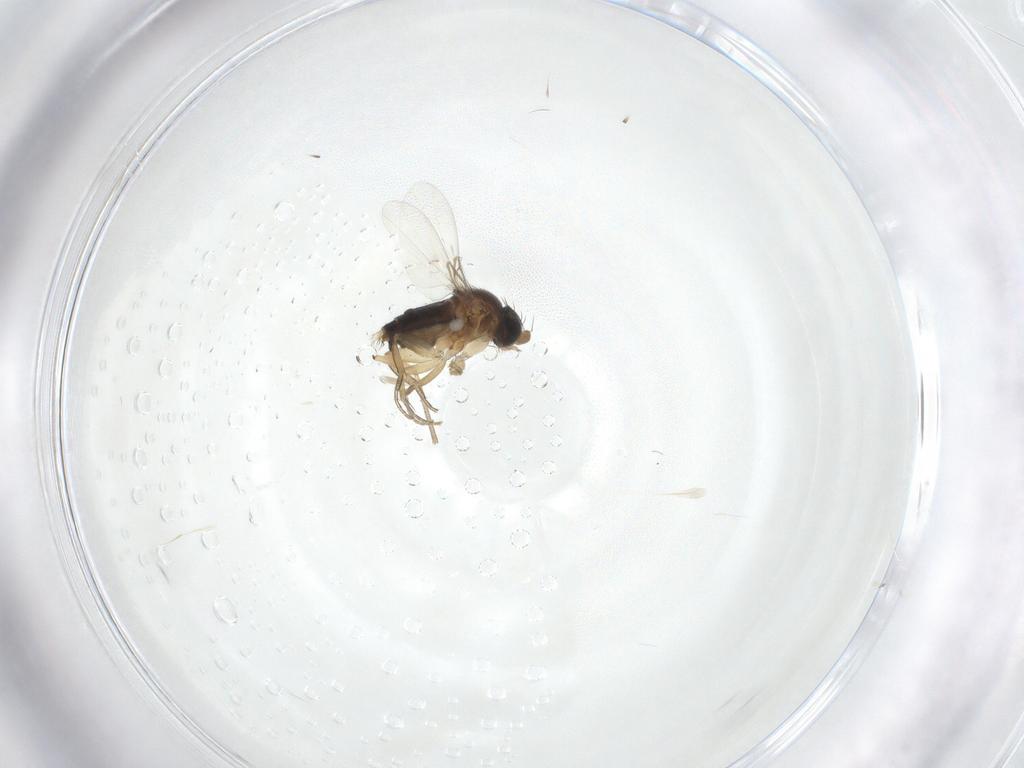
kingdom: Animalia
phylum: Arthropoda
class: Insecta
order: Diptera
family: Sciaridae
